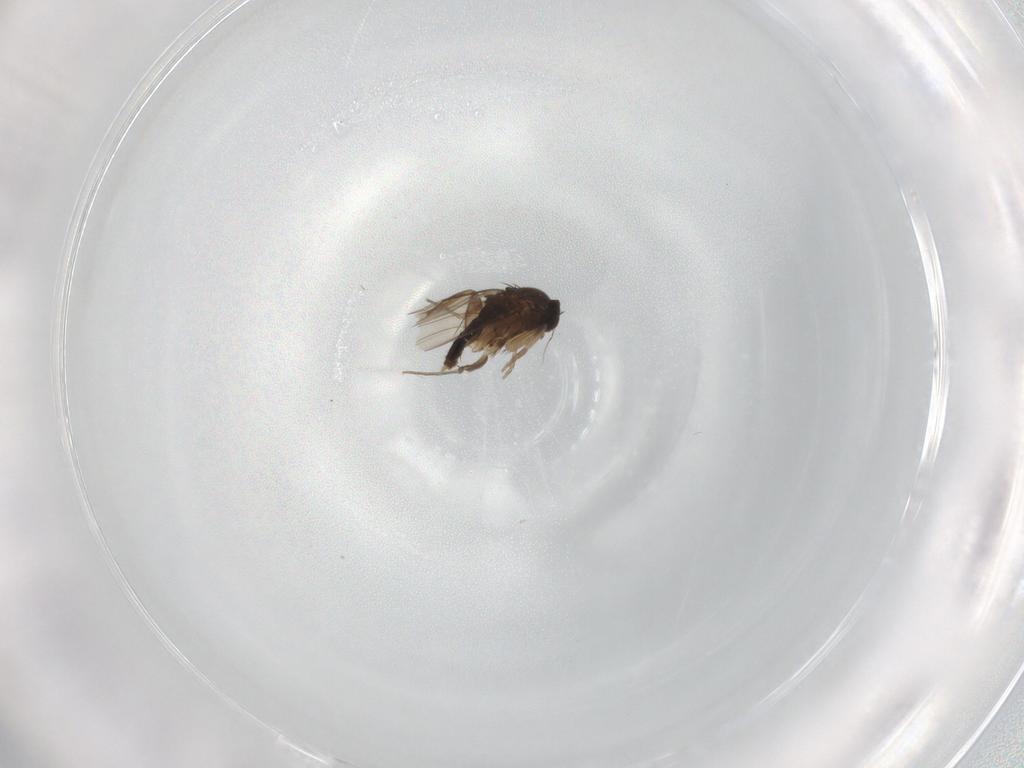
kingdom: Animalia
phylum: Arthropoda
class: Insecta
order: Diptera
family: Phoridae
